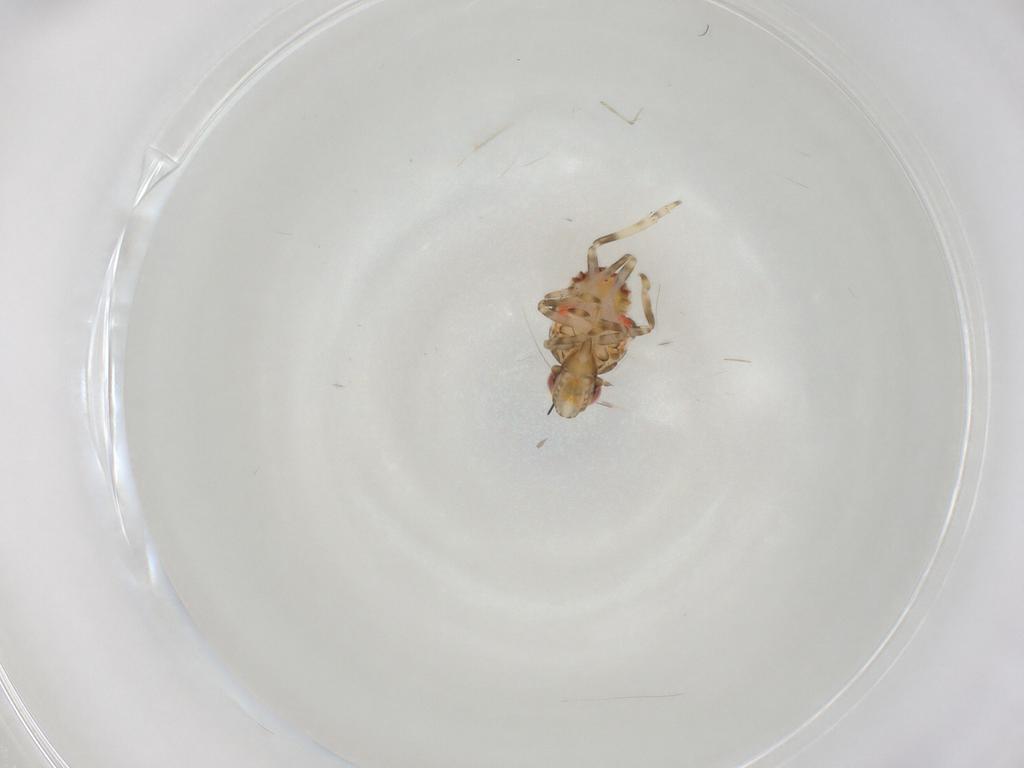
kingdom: Animalia
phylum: Arthropoda
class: Insecta
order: Hemiptera
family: Tropiduchidae
